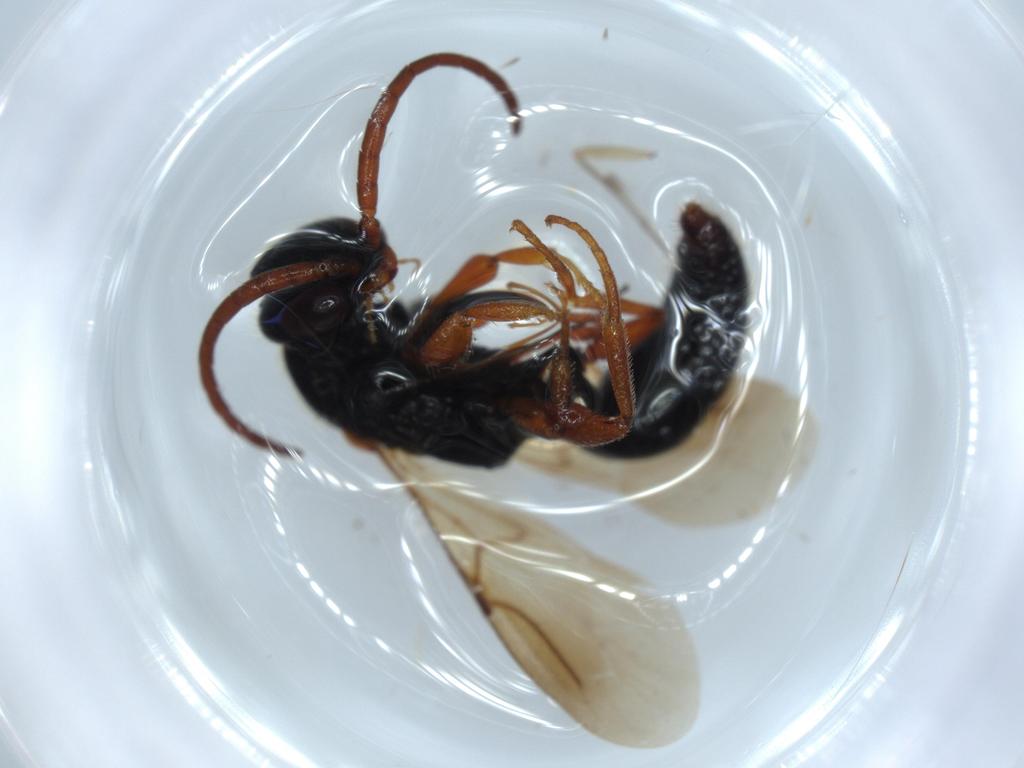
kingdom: Animalia
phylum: Arthropoda
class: Insecta
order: Hymenoptera
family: Bethylidae
